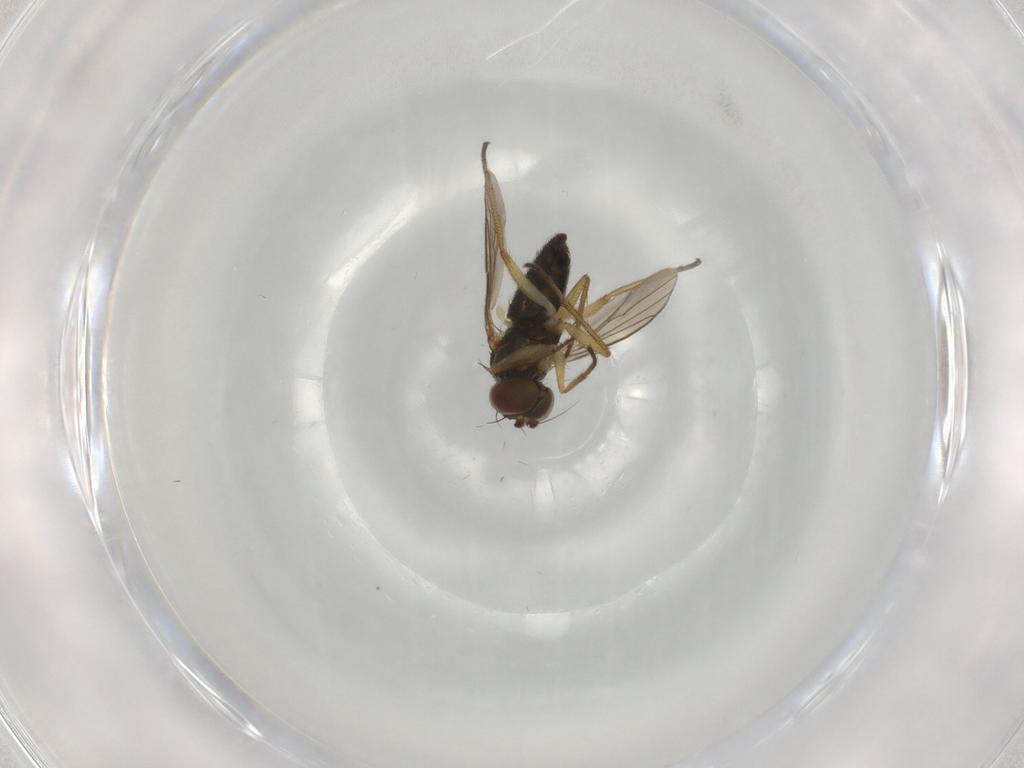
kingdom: Animalia
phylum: Arthropoda
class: Insecta
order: Diptera
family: Dolichopodidae
